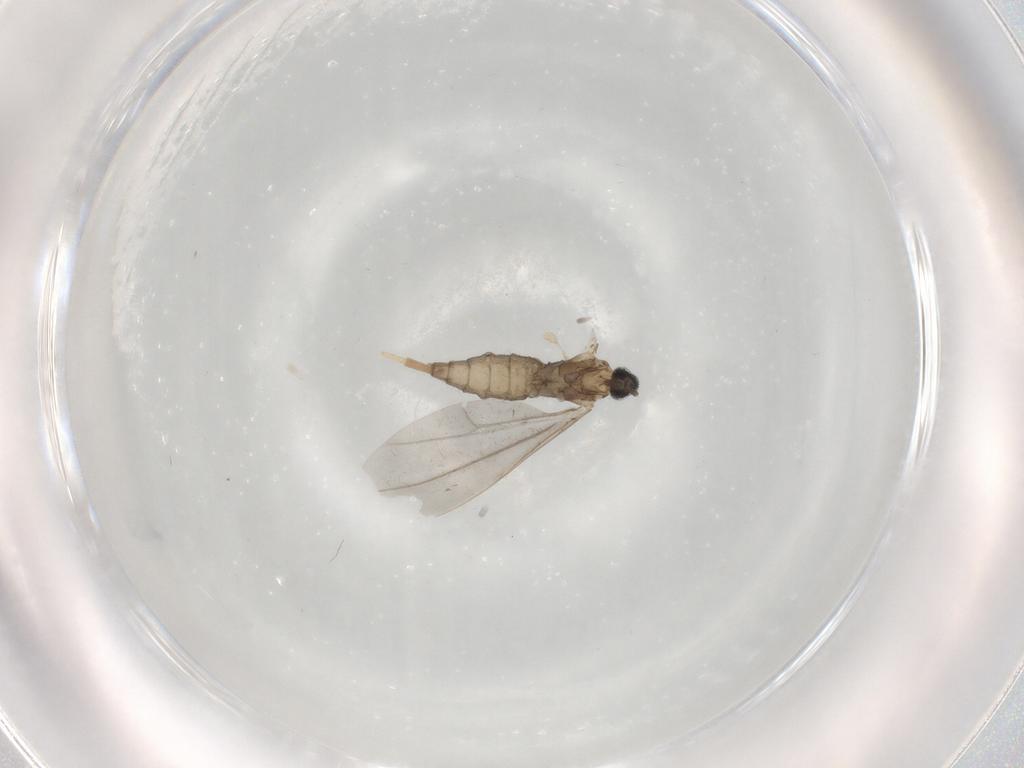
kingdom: Animalia
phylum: Arthropoda
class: Insecta
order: Diptera
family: Cecidomyiidae
